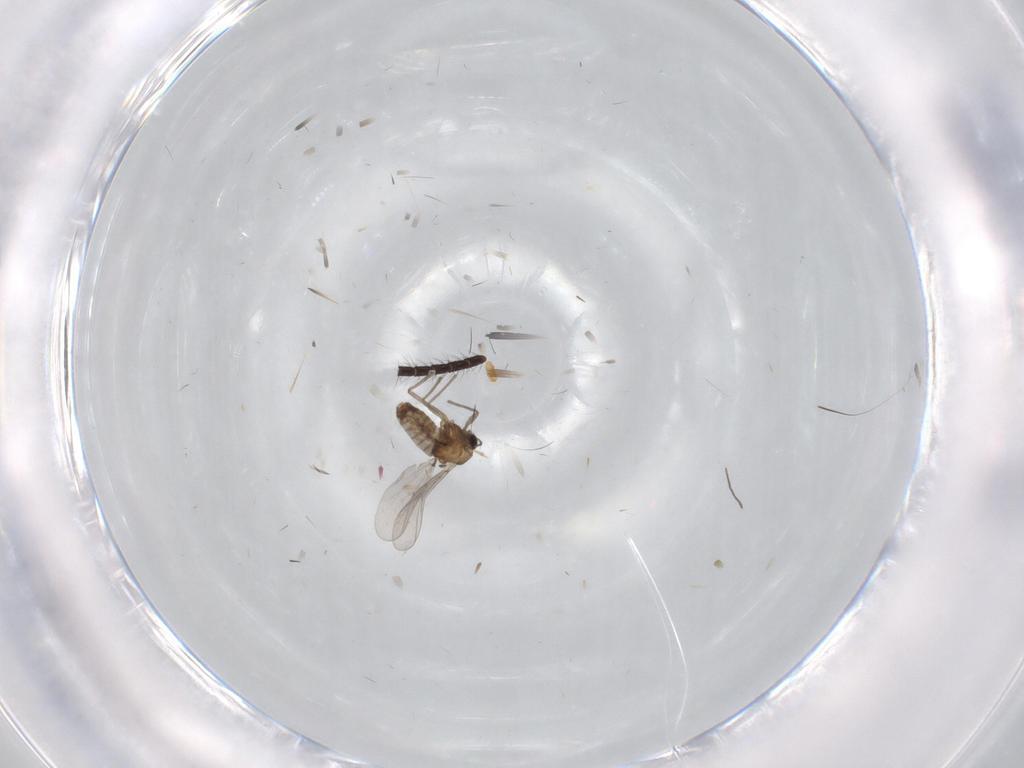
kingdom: Animalia
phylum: Arthropoda
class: Insecta
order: Diptera
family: Chironomidae
